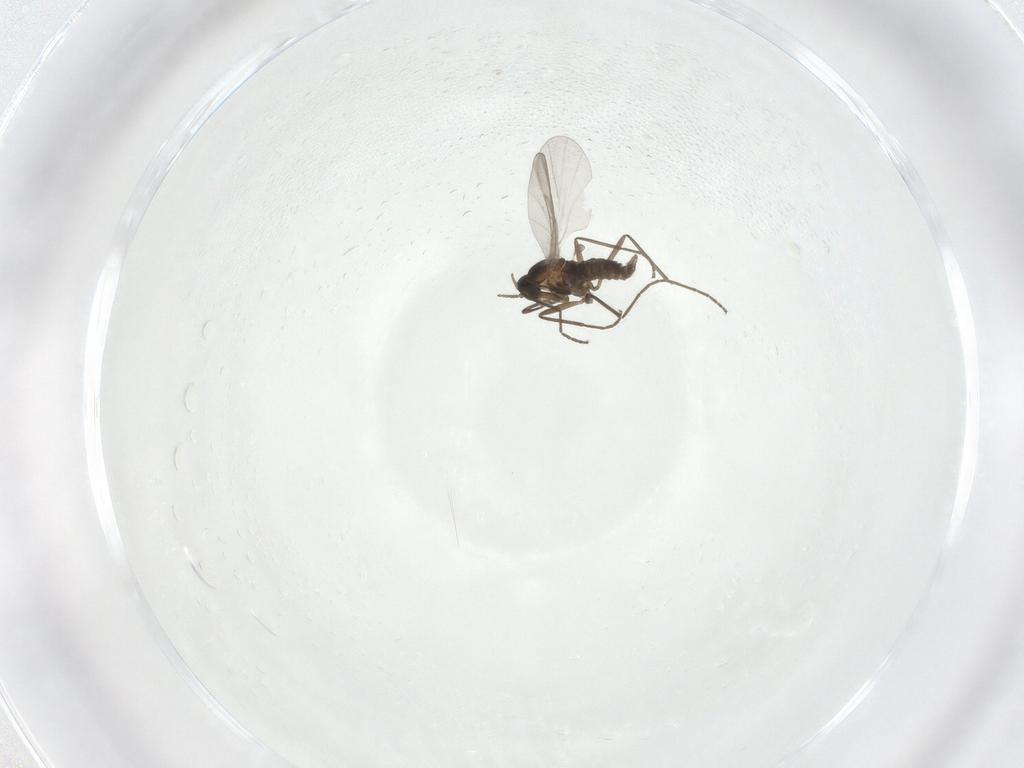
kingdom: Animalia
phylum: Arthropoda
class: Insecta
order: Diptera
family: Cecidomyiidae
